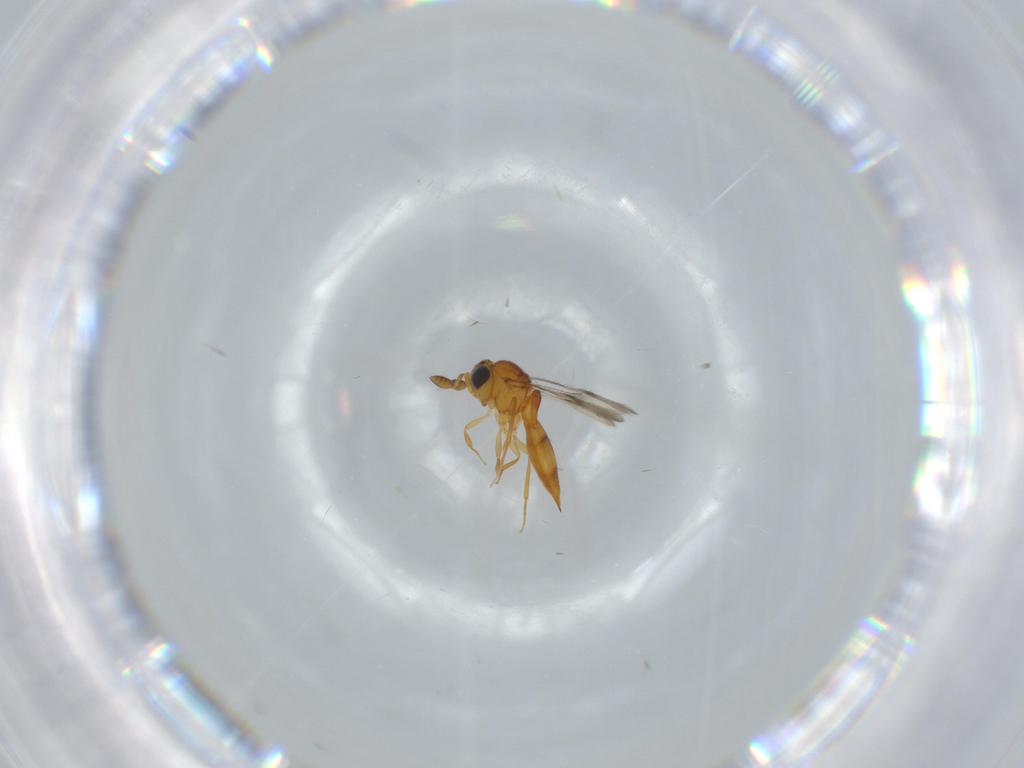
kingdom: Animalia
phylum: Arthropoda
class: Insecta
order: Hymenoptera
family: Scelionidae
